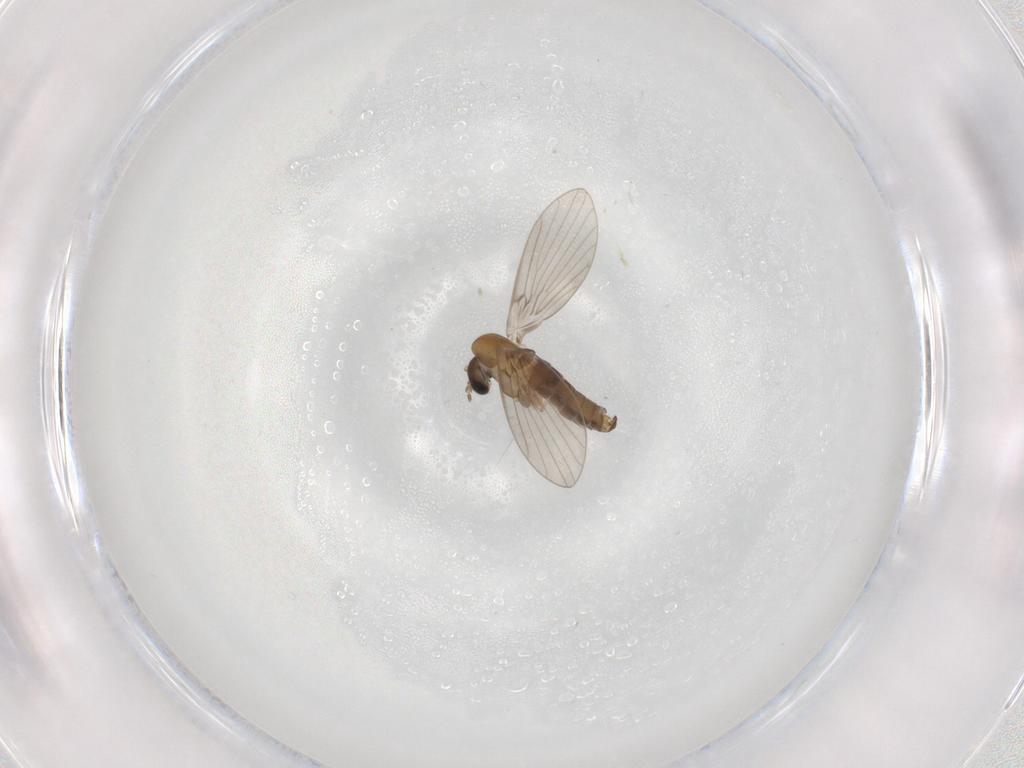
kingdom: Animalia
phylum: Arthropoda
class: Insecta
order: Diptera
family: Psychodidae
